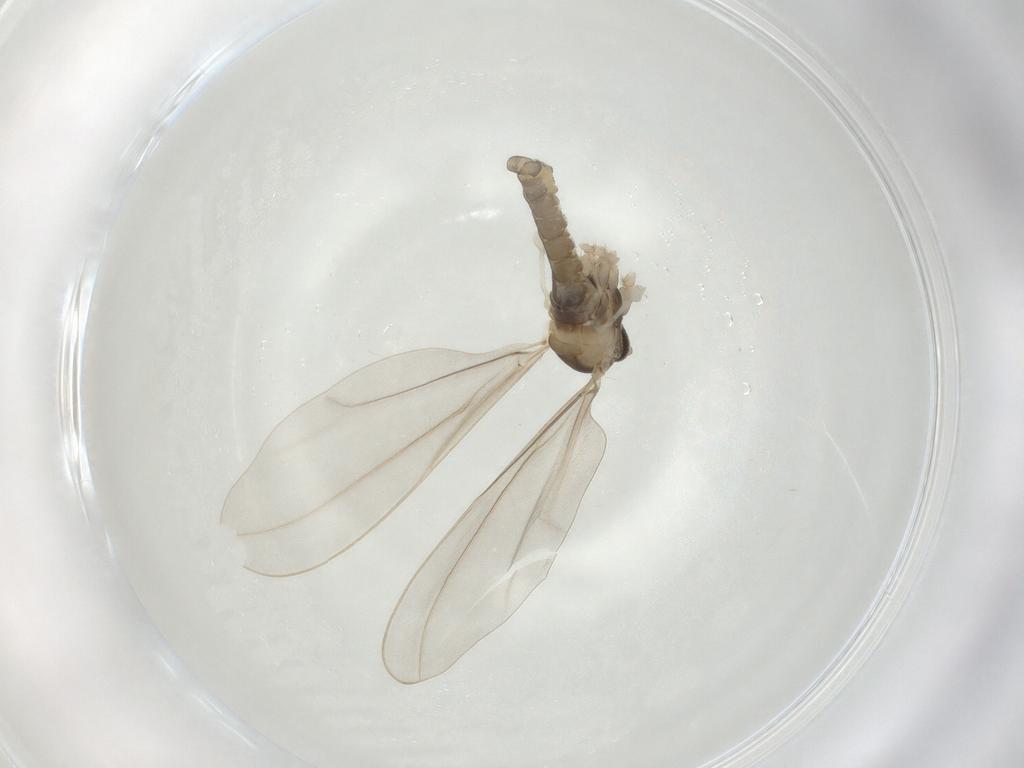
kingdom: Animalia
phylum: Arthropoda
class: Insecta
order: Diptera
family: Cecidomyiidae
